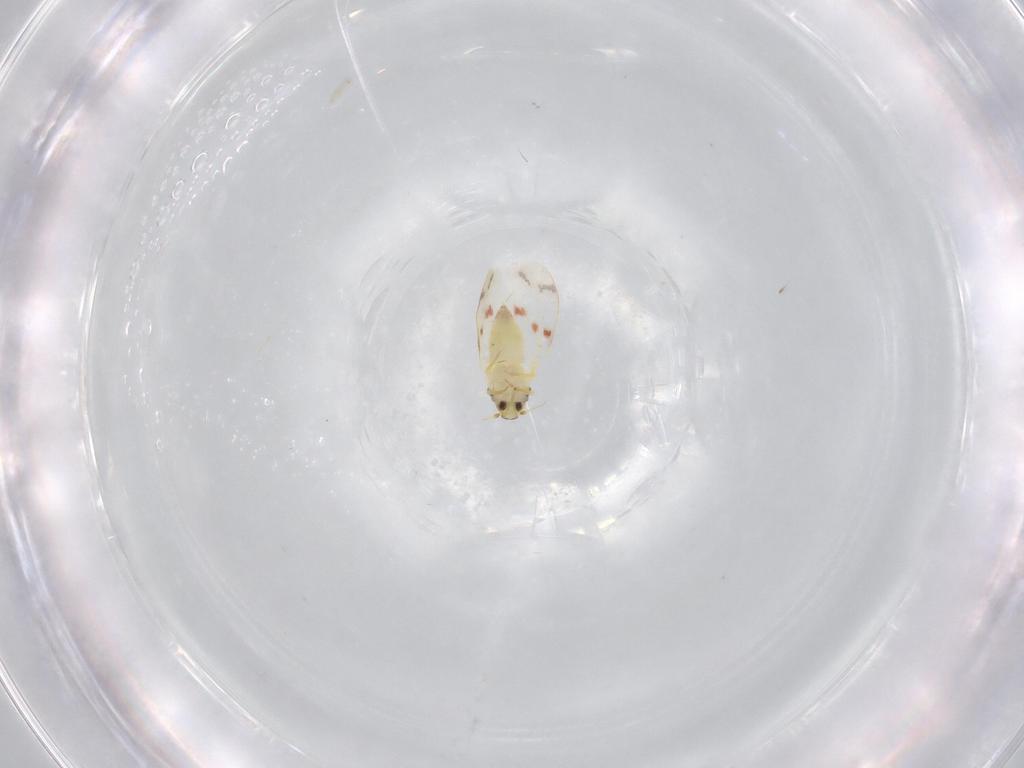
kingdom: Animalia
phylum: Arthropoda
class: Insecta
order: Hemiptera
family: Aleyrodidae
